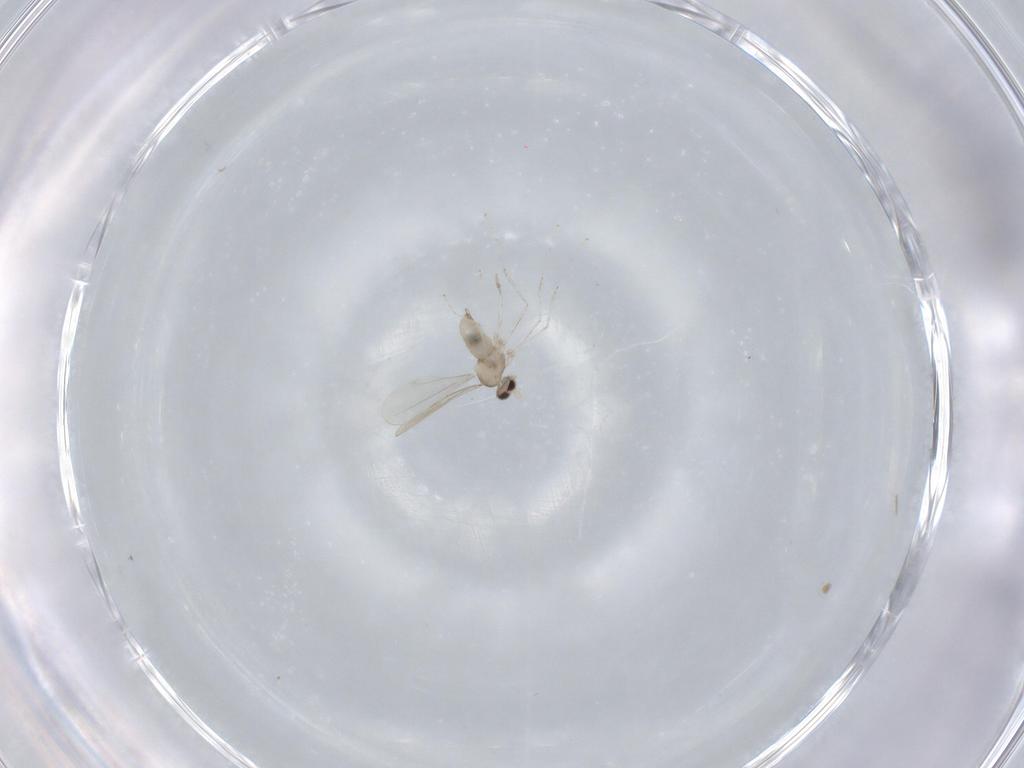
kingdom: Animalia
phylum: Arthropoda
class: Insecta
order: Diptera
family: Cecidomyiidae
